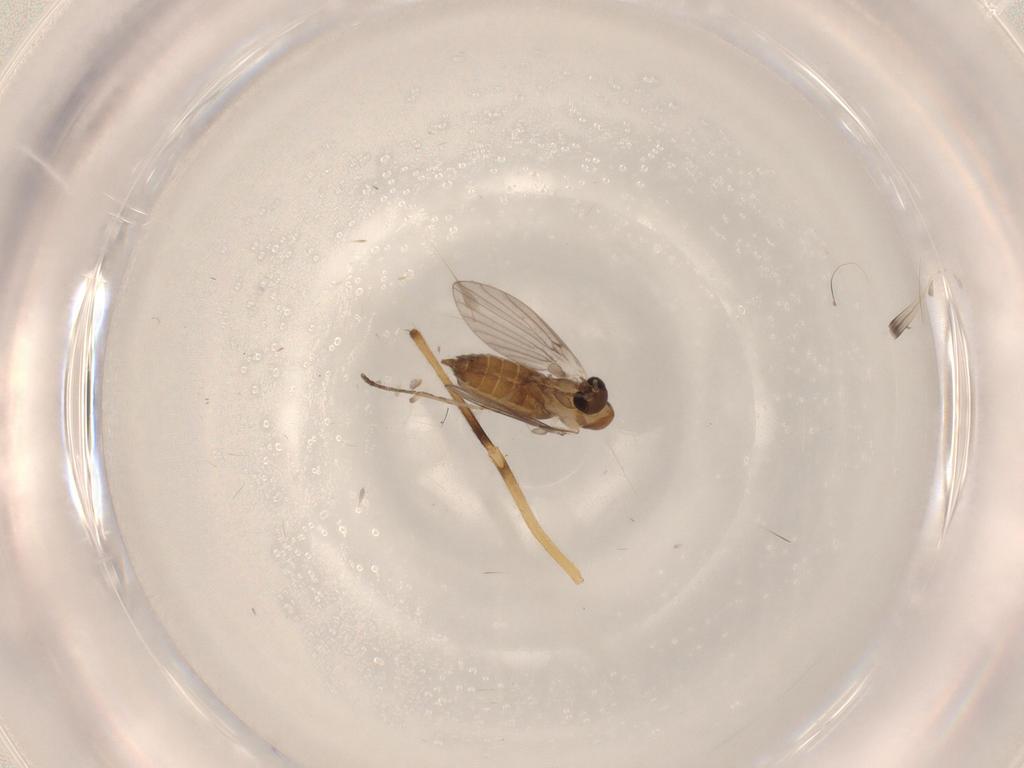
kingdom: Animalia
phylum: Arthropoda
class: Insecta
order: Diptera
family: Psychodidae
